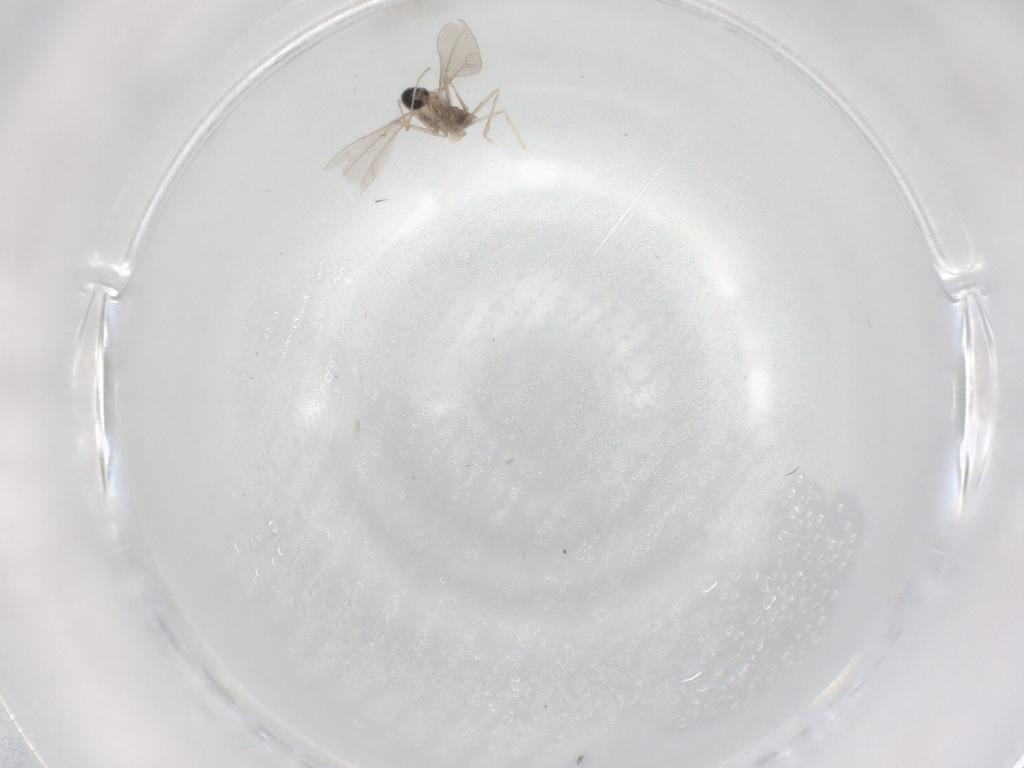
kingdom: Animalia
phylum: Arthropoda
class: Insecta
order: Diptera
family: Cecidomyiidae
